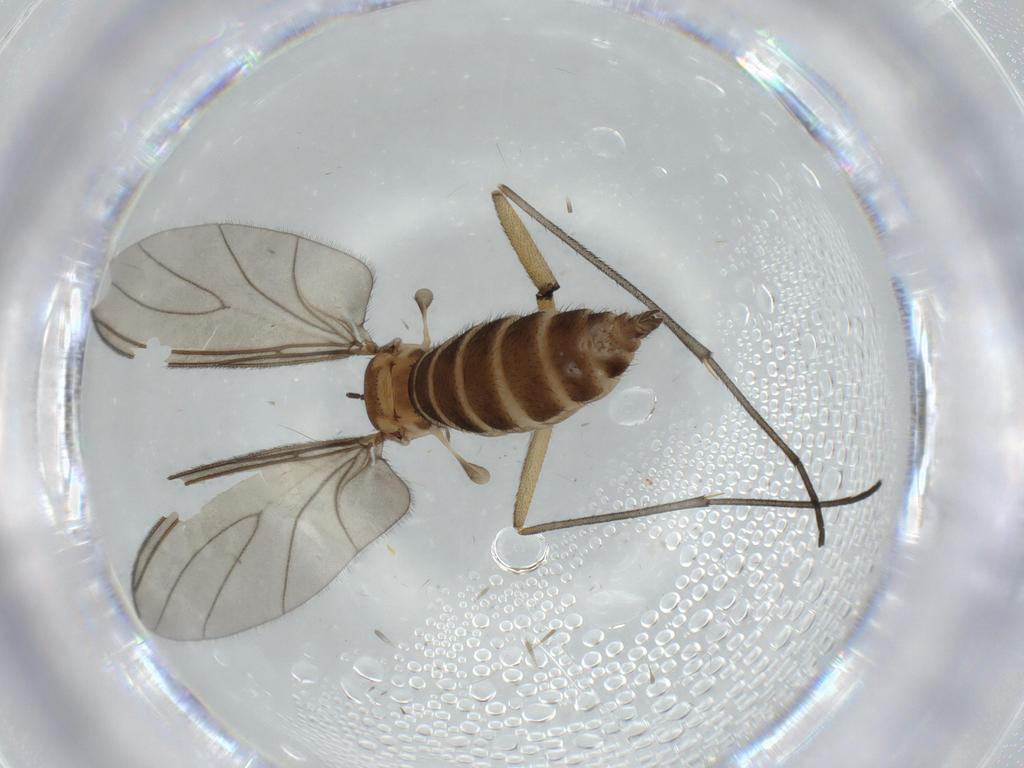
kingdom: Animalia
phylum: Arthropoda
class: Insecta
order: Diptera
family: Sciaridae
